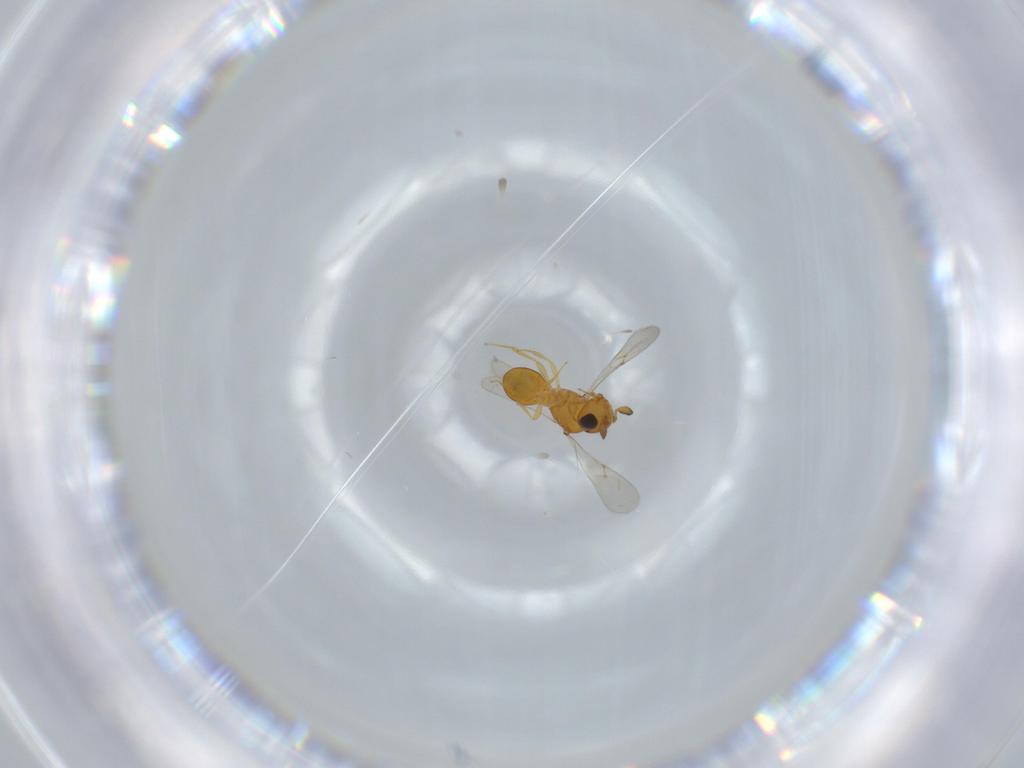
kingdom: Animalia
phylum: Arthropoda
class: Insecta
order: Hymenoptera
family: Scelionidae
